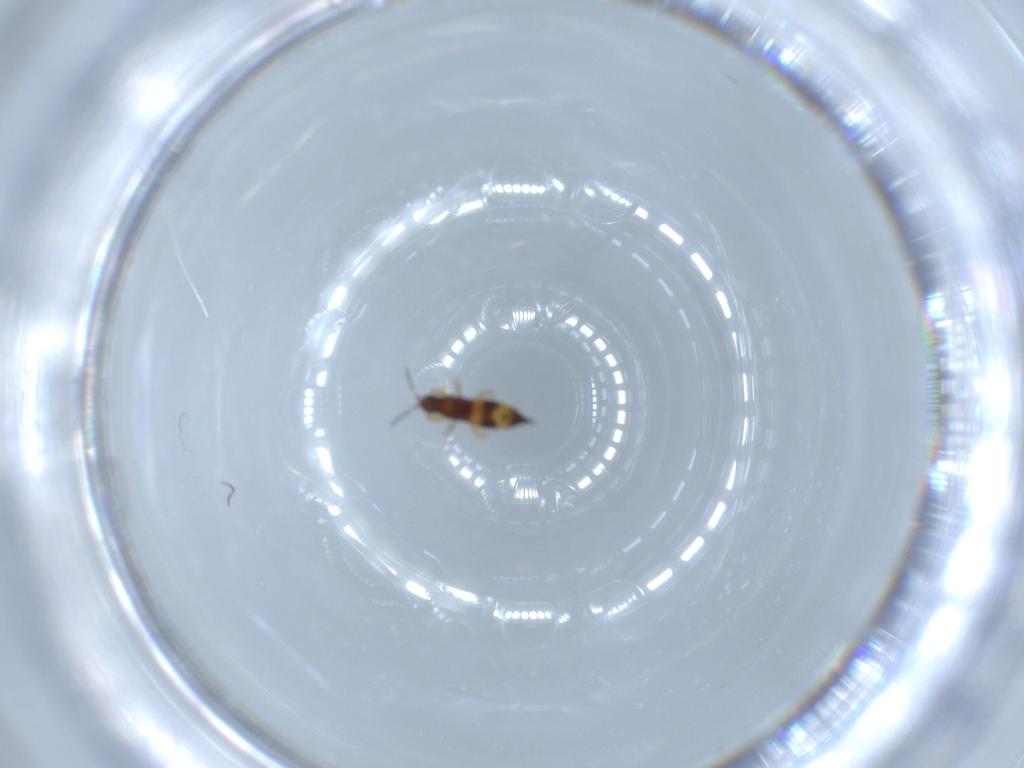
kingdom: Animalia
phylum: Arthropoda
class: Insecta
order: Thysanoptera
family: Phlaeothripidae
